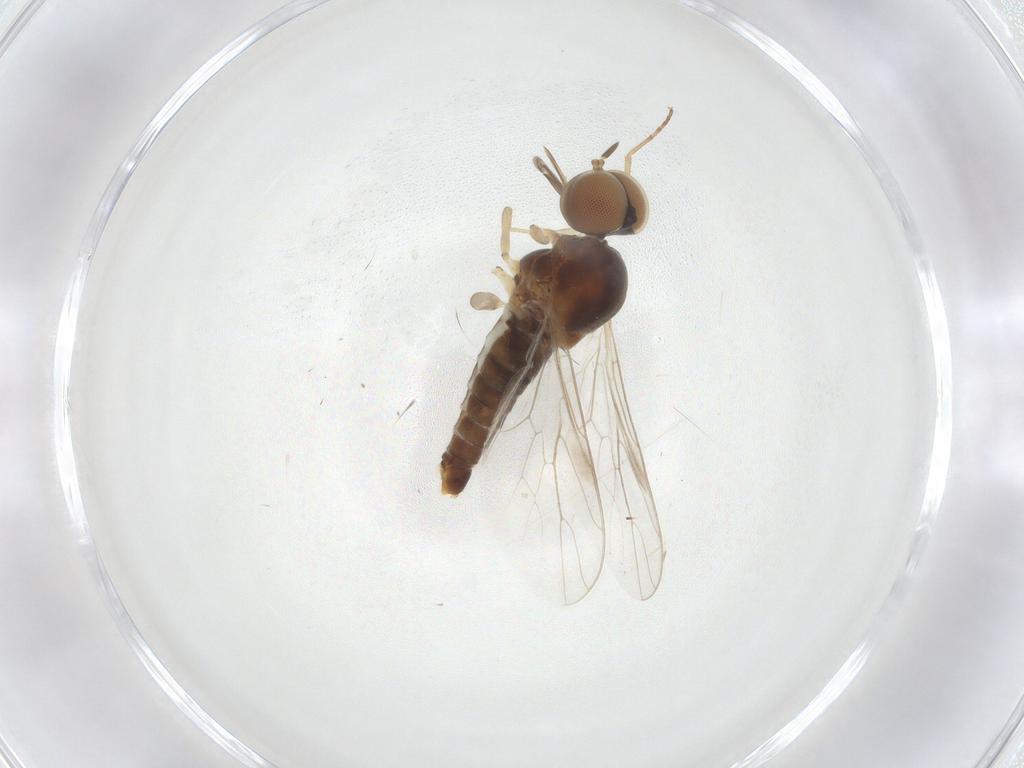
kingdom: Animalia
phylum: Arthropoda
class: Insecta
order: Diptera
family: Scenopinidae
